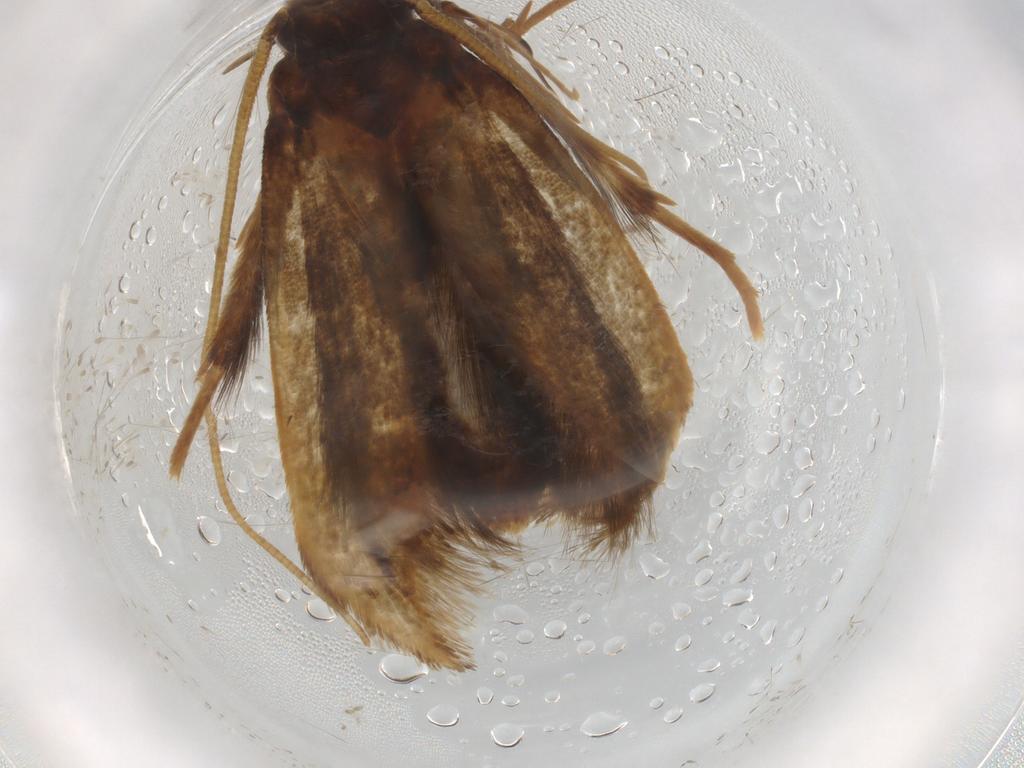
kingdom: Animalia
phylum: Arthropoda
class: Insecta
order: Lepidoptera
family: Tineidae
